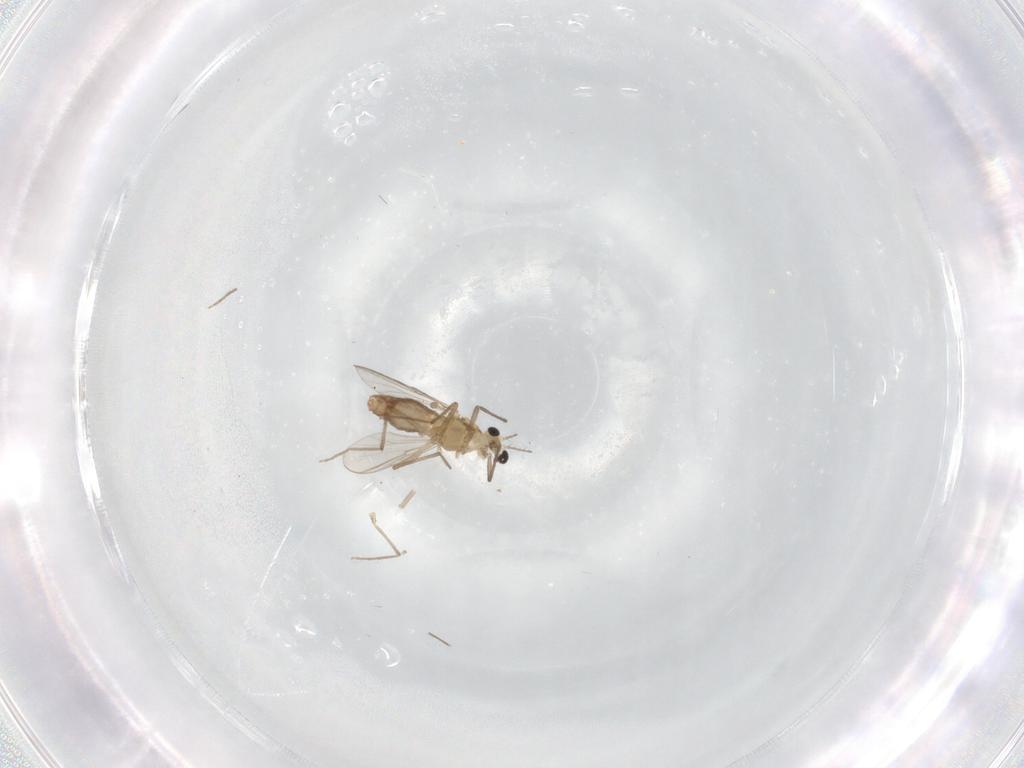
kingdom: Animalia
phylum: Arthropoda
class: Insecta
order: Diptera
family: Chironomidae
